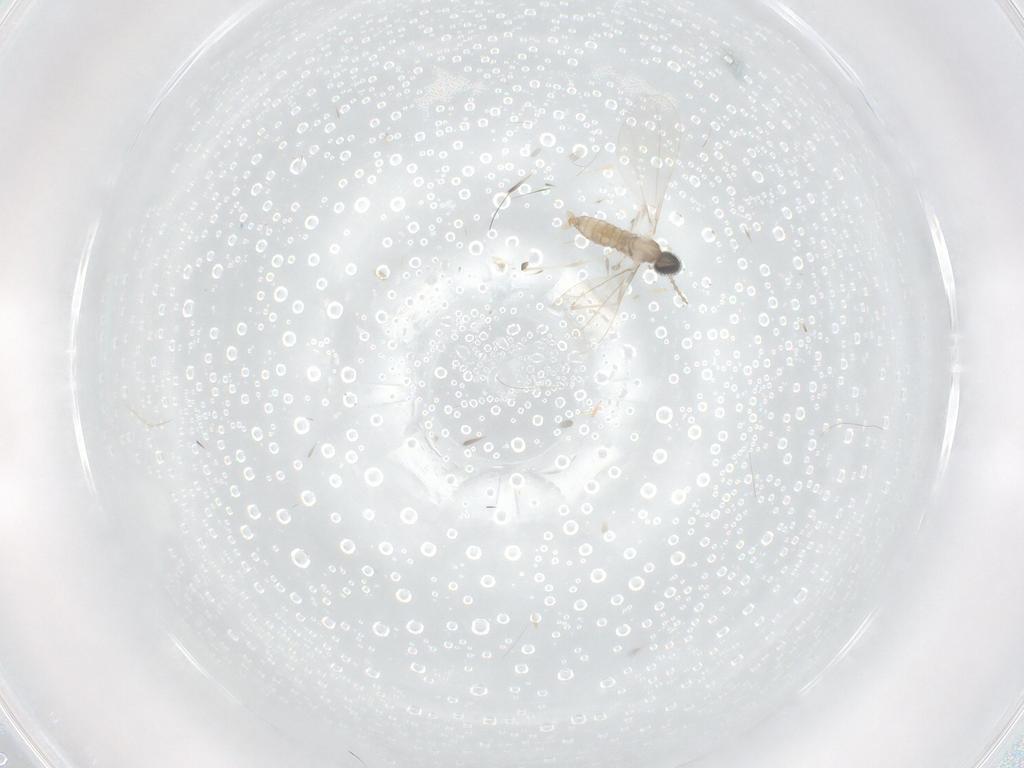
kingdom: Animalia
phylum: Arthropoda
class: Insecta
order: Diptera
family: Cecidomyiidae
